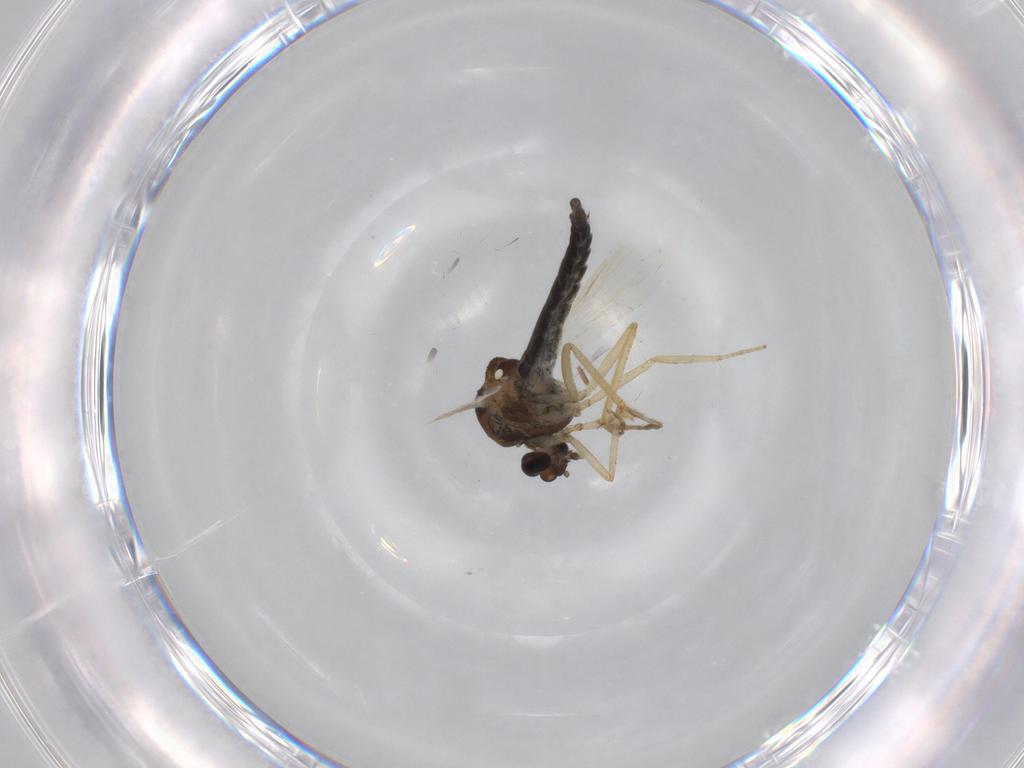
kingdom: Animalia
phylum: Arthropoda
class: Insecta
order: Diptera
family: Ceratopogonidae
